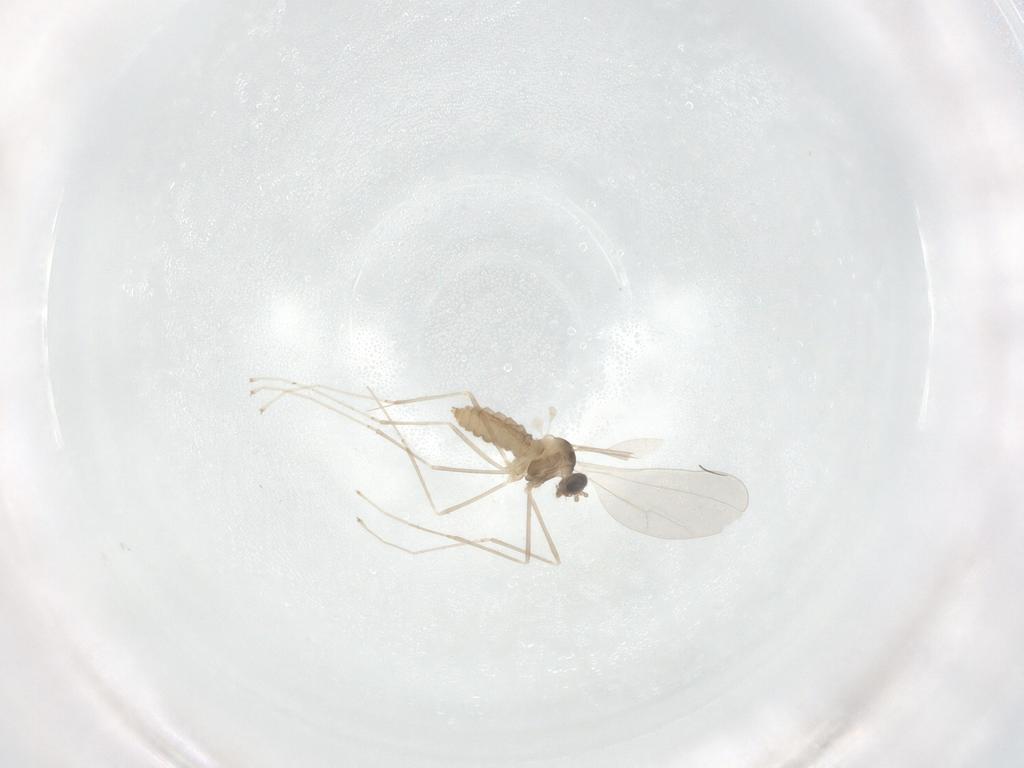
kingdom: Animalia
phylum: Arthropoda
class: Insecta
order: Diptera
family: Cecidomyiidae
